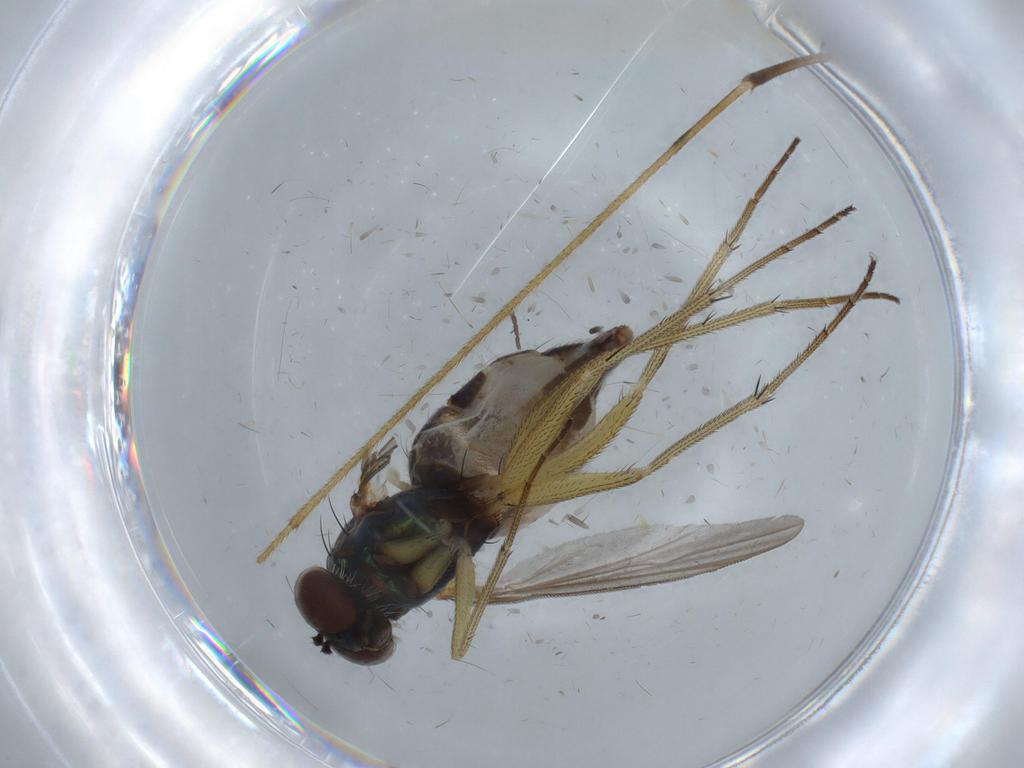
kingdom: Animalia
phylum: Arthropoda
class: Insecta
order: Diptera
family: Limoniidae
